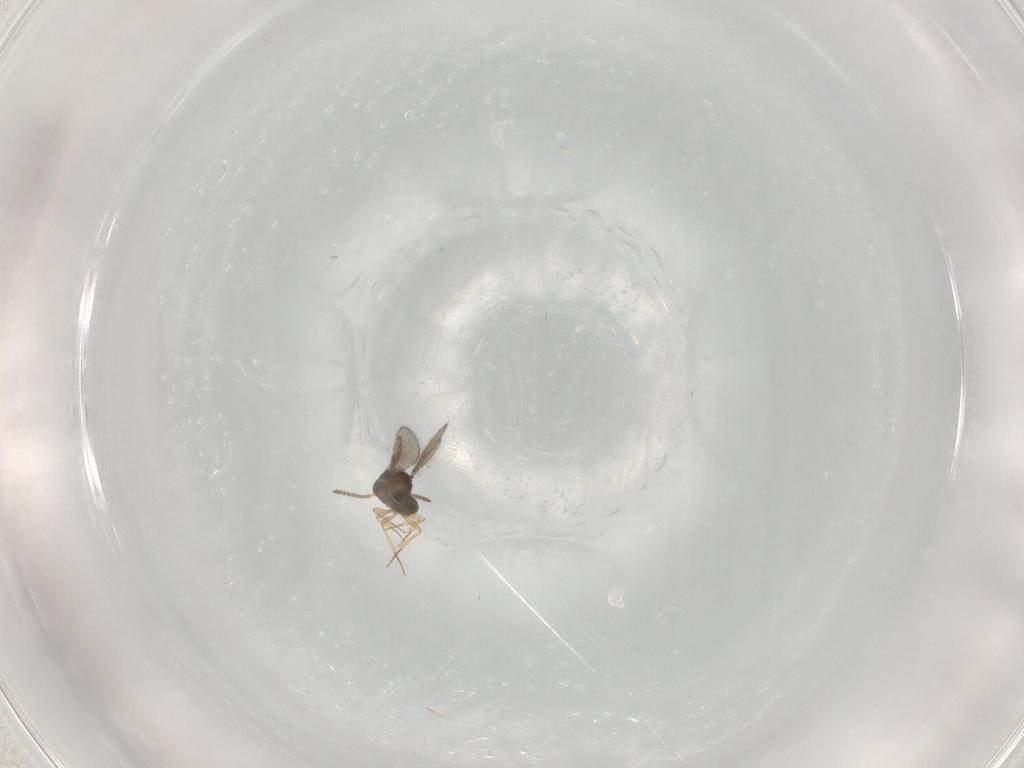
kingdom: Animalia
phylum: Arthropoda
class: Insecta
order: Hymenoptera
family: Scelionidae
